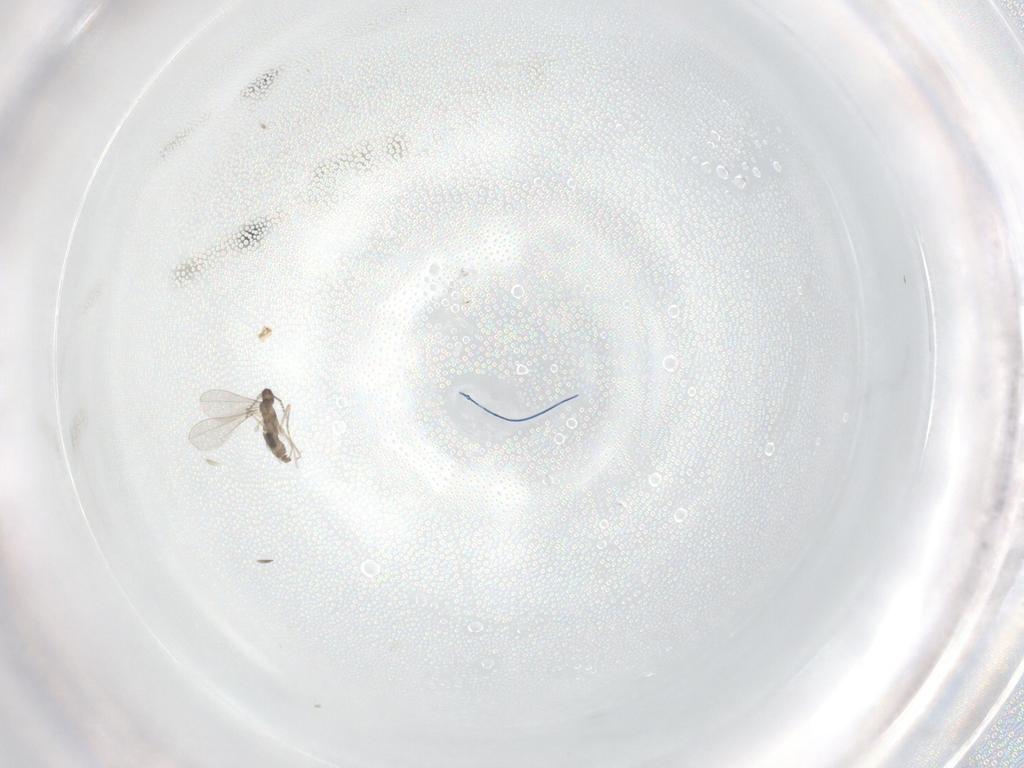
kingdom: Animalia
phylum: Arthropoda
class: Insecta
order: Diptera
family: Cecidomyiidae
